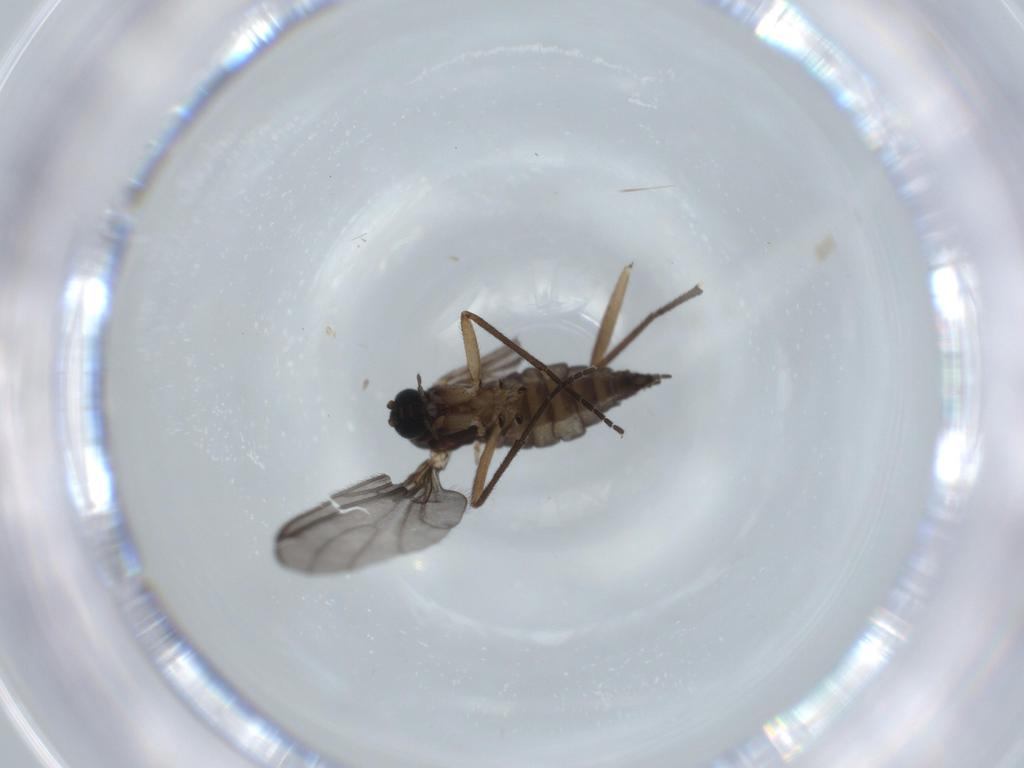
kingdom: Animalia
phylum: Arthropoda
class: Insecta
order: Diptera
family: Sciaridae
